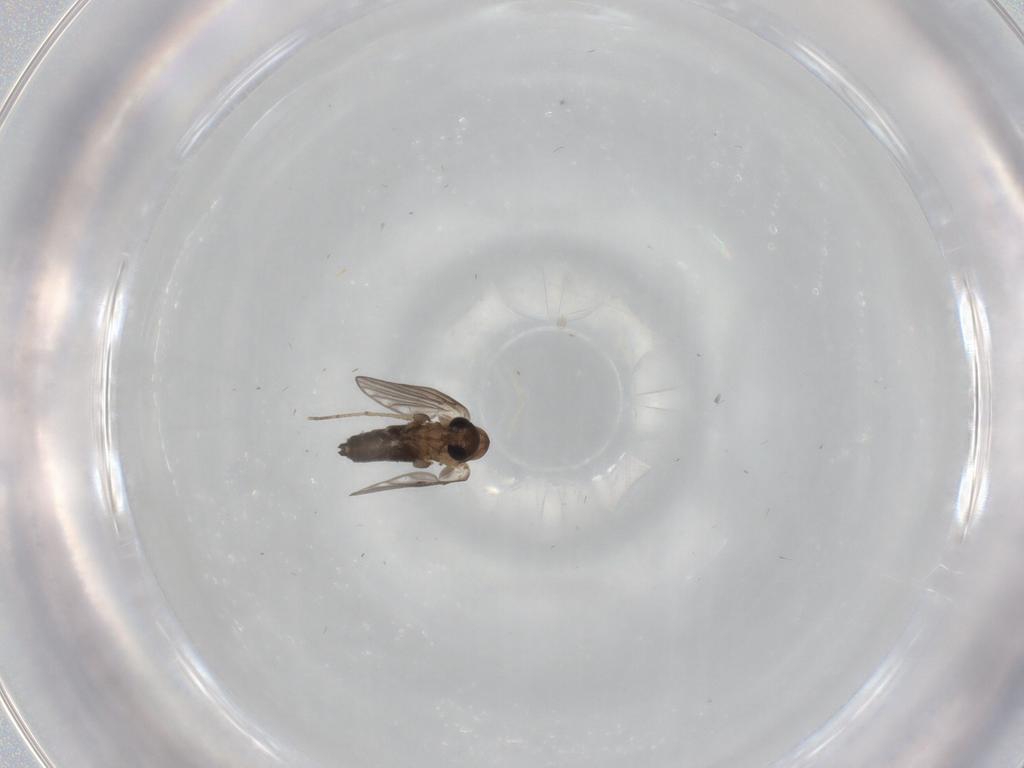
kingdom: Animalia
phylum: Arthropoda
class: Insecta
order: Diptera
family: Psychodidae
